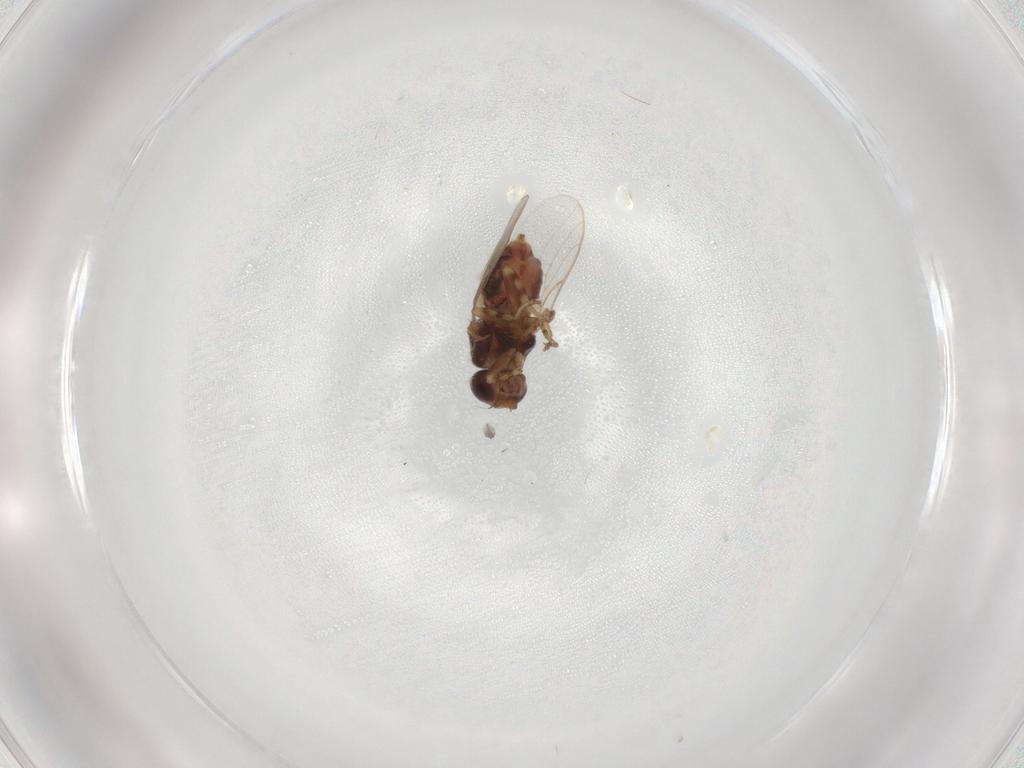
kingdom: Animalia
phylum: Arthropoda
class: Insecta
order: Diptera
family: Chloropidae
